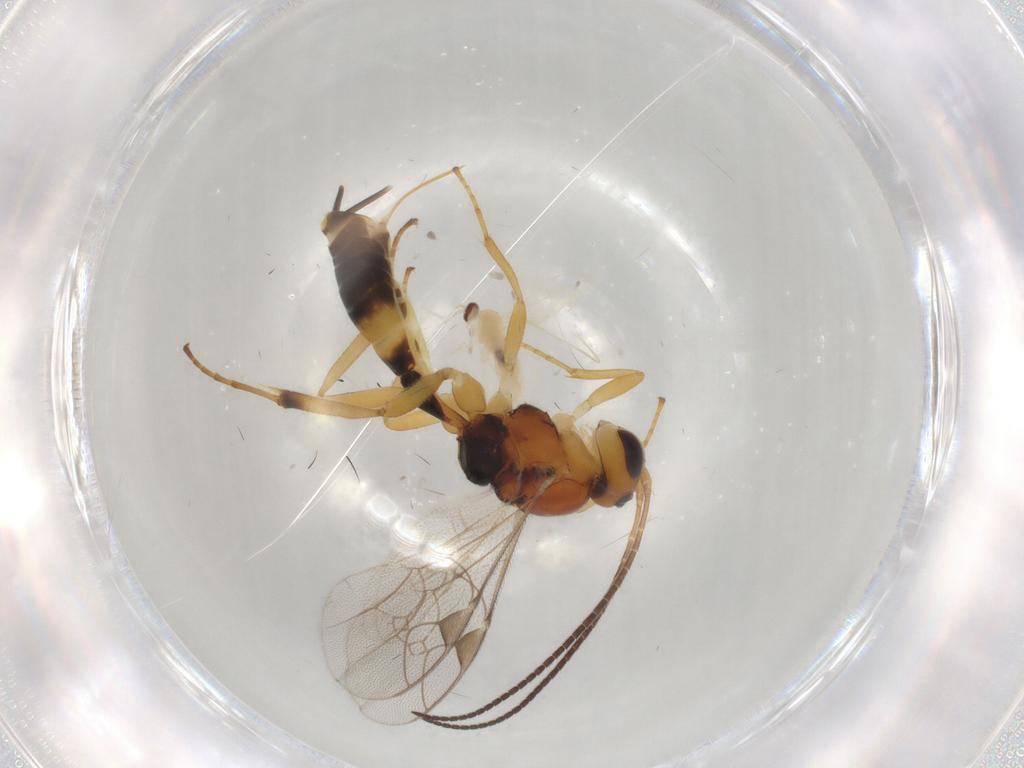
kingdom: Animalia
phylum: Arthropoda
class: Insecta
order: Hymenoptera
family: Ichneumonidae
